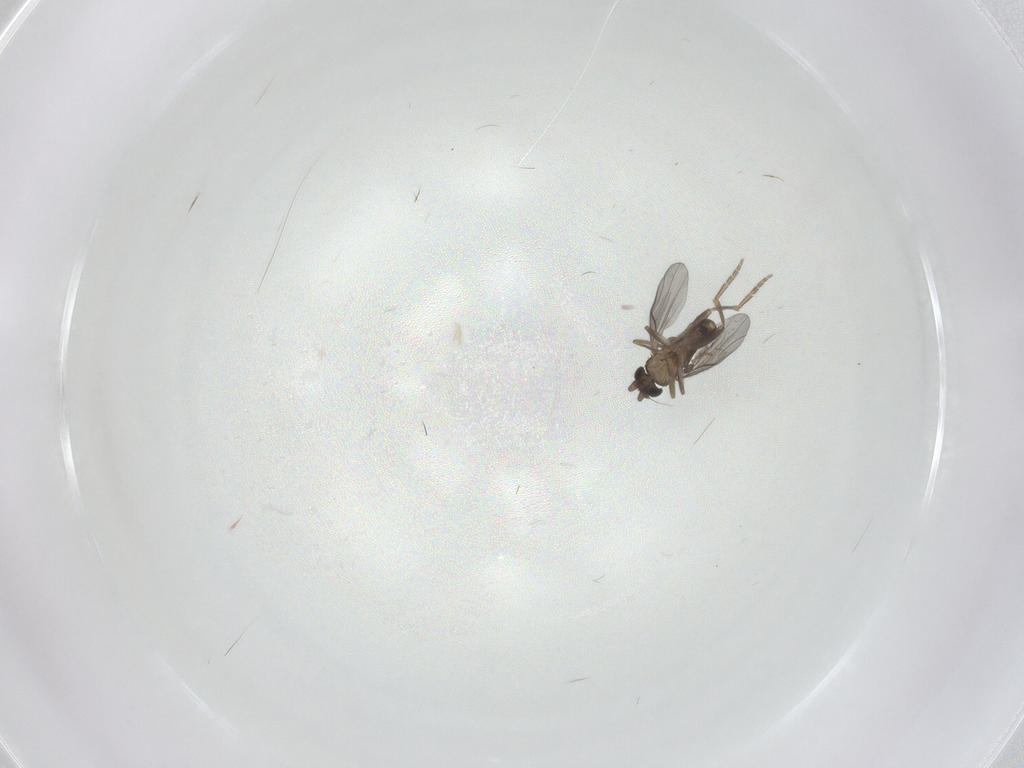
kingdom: Animalia
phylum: Arthropoda
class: Insecta
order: Diptera
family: Cecidomyiidae
